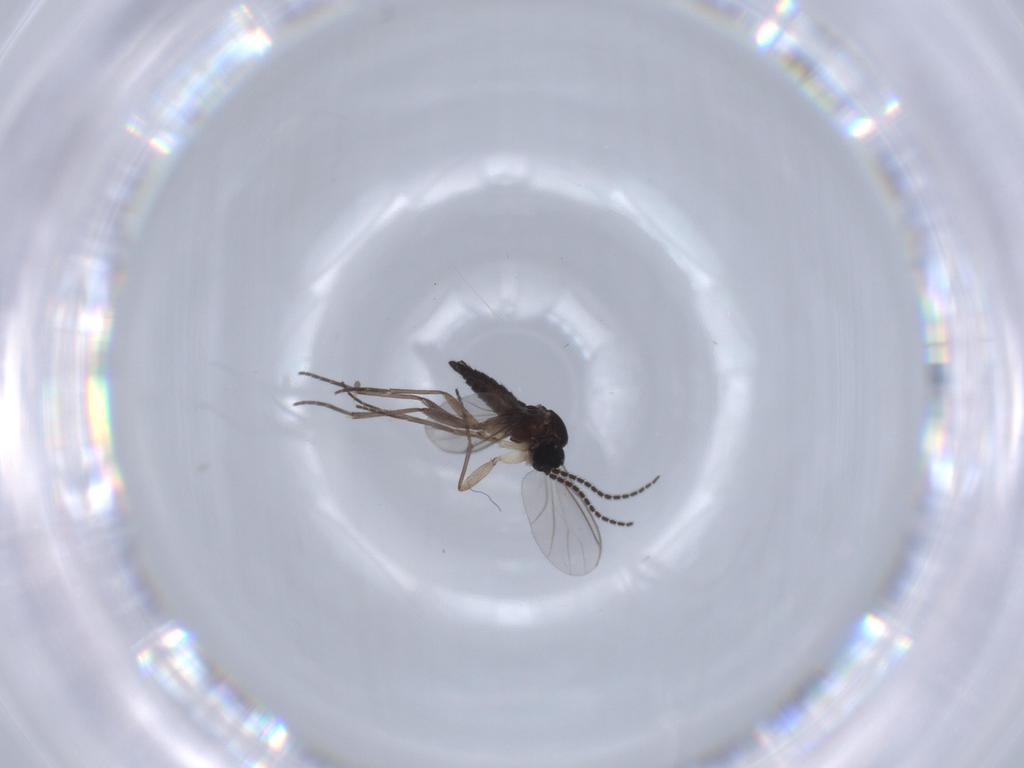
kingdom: Animalia
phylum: Arthropoda
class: Insecta
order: Diptera
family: Sciaridae
